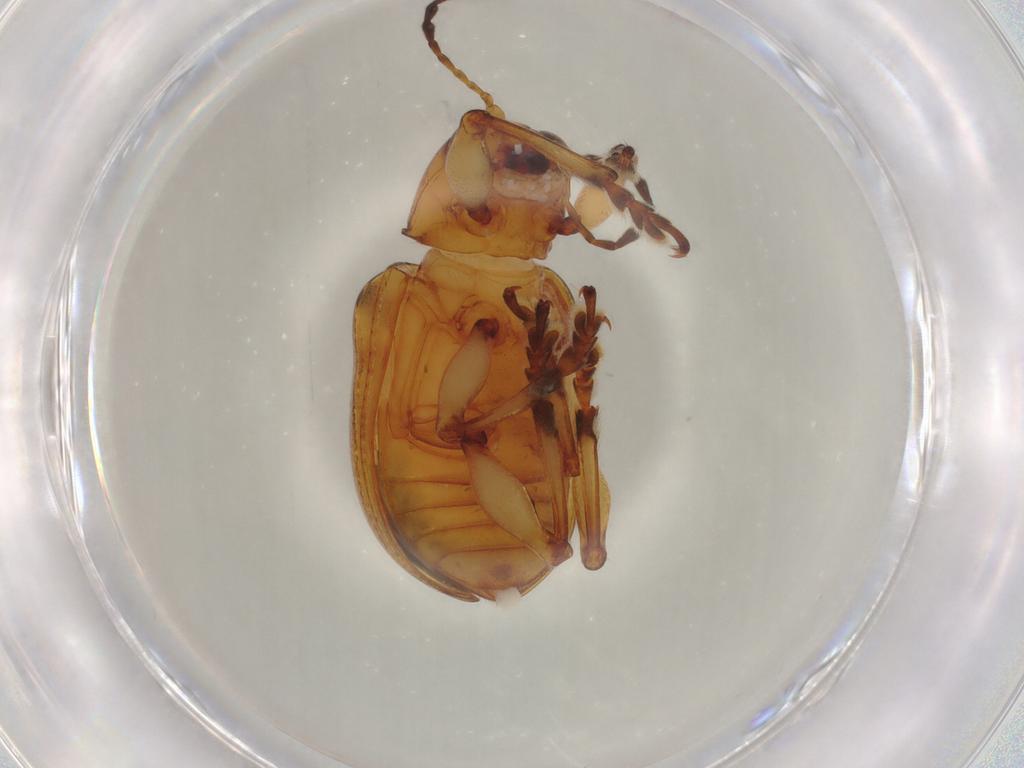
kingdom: Animalia
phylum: Arthropoda
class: Insecta
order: Coleoptera
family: Chrysomelidae
